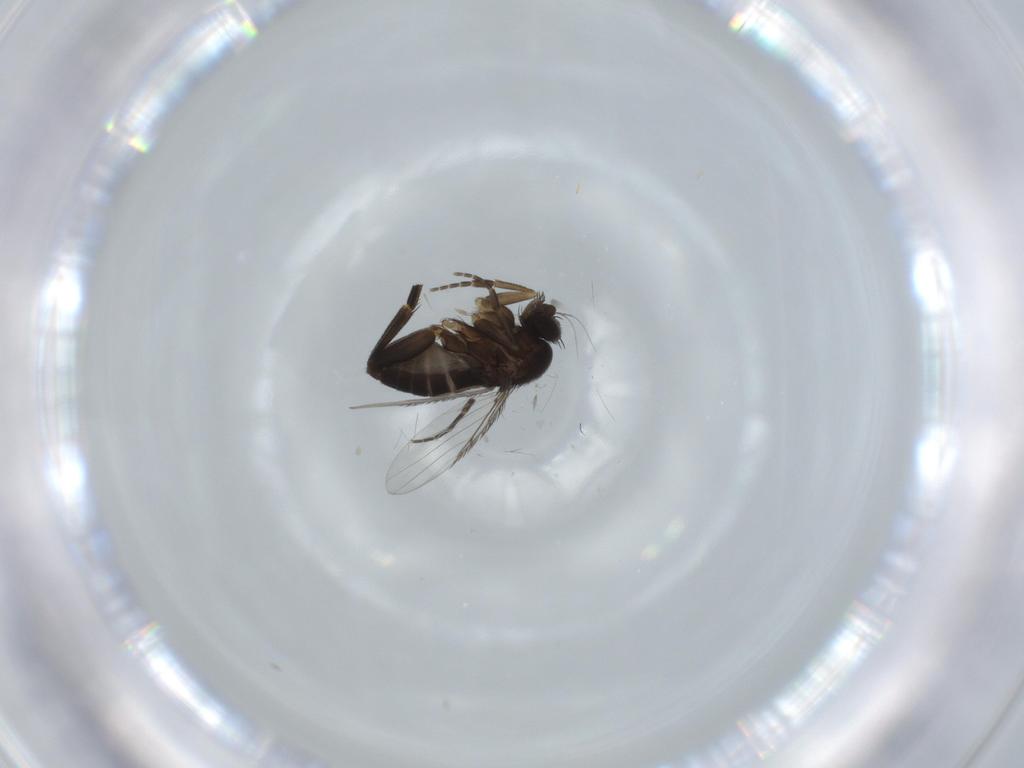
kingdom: Animalia
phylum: Arthropoda
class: Insecta
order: Diptera
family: Phoridae
